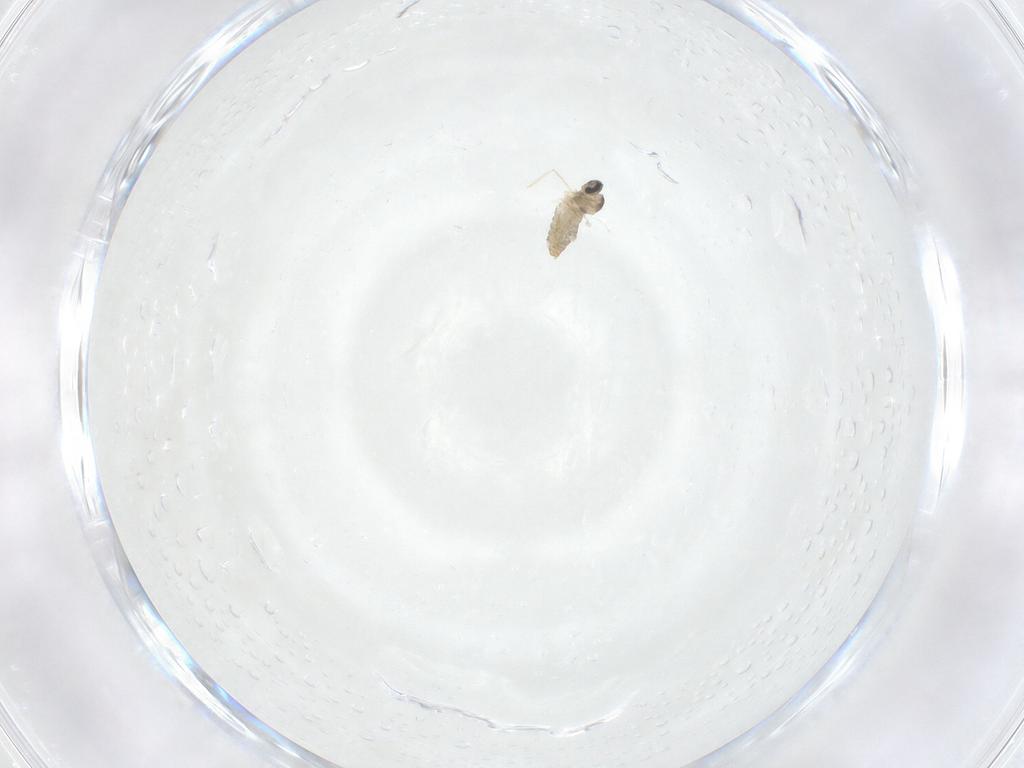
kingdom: Animalia
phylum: Arthropoda
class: Insecta
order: Diptera
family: Cecidomyiidae
